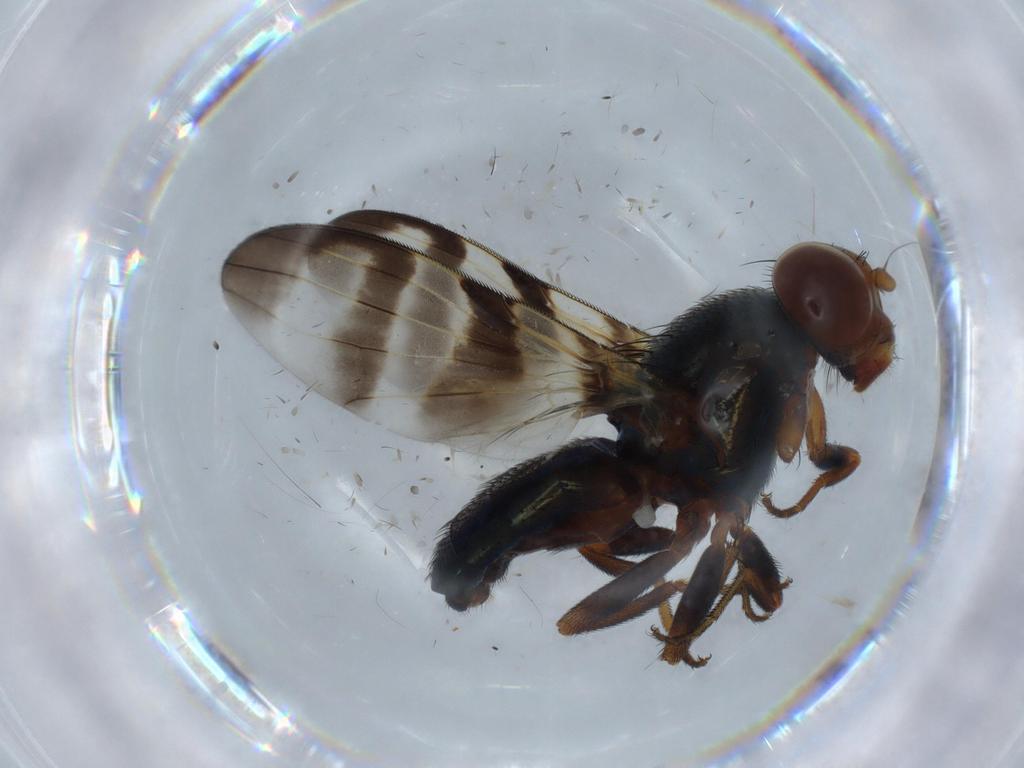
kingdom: Animalia
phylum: Arthropoda
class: Insecta
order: Diptera
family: Ulidiidae
